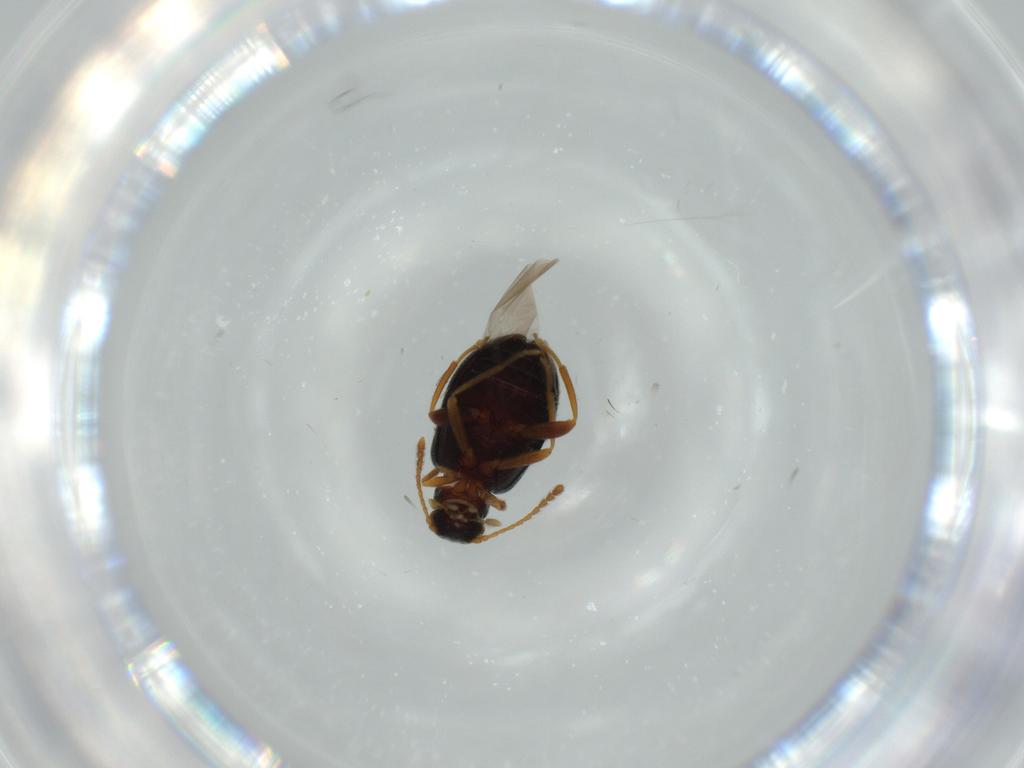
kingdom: Animalia
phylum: Arthropoda
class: Insecta
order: Coleoptera
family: Aderidae
